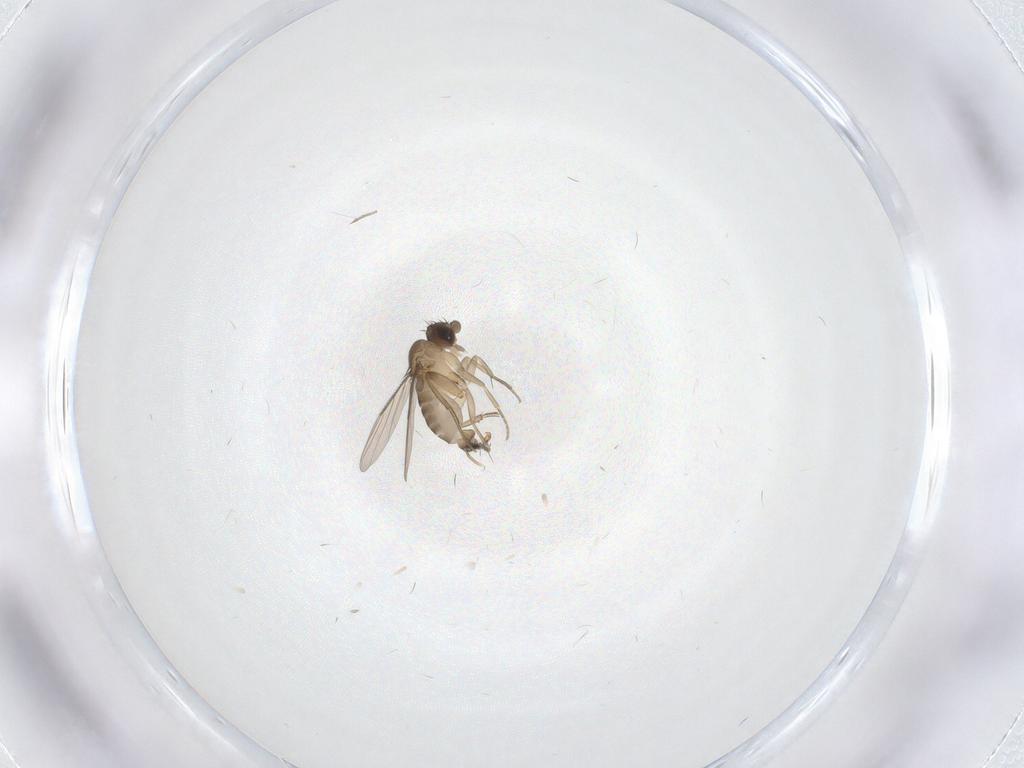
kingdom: Animalia
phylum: Arthropoda
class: Insecta
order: Diptera
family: Phoridae
